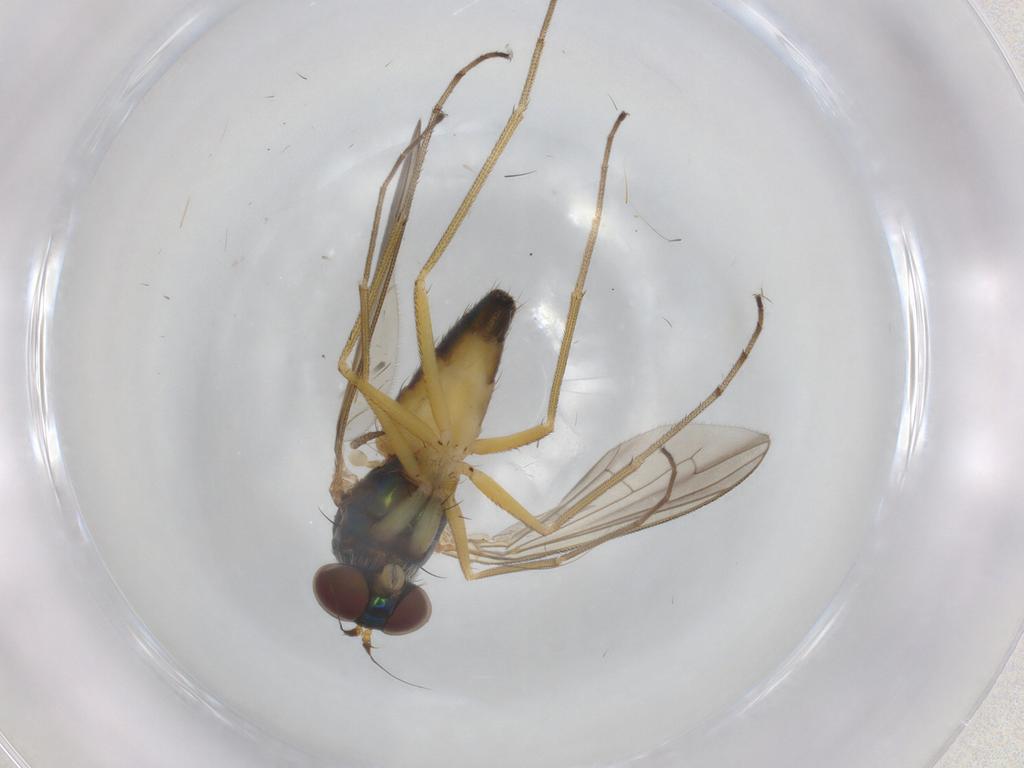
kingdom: Animalia
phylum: Arthropoda
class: Insecta
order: Diptera
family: Dolichopodidae
